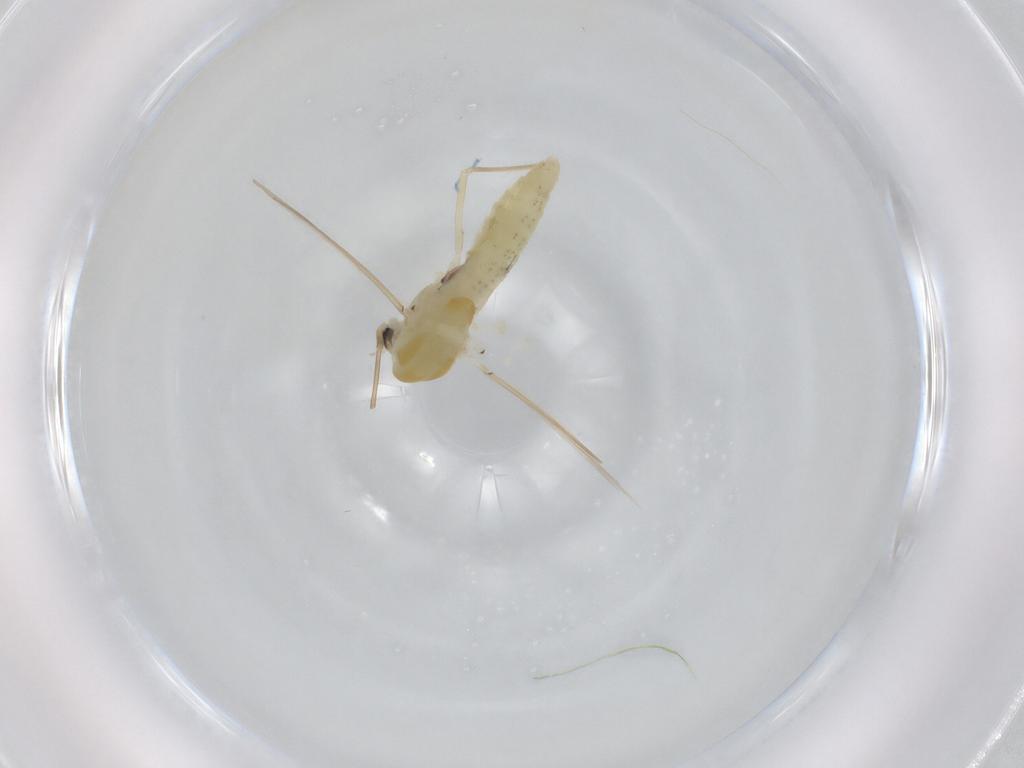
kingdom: Animalia
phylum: Arthropoda
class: Insecta
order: Diptera
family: Chironomidae
